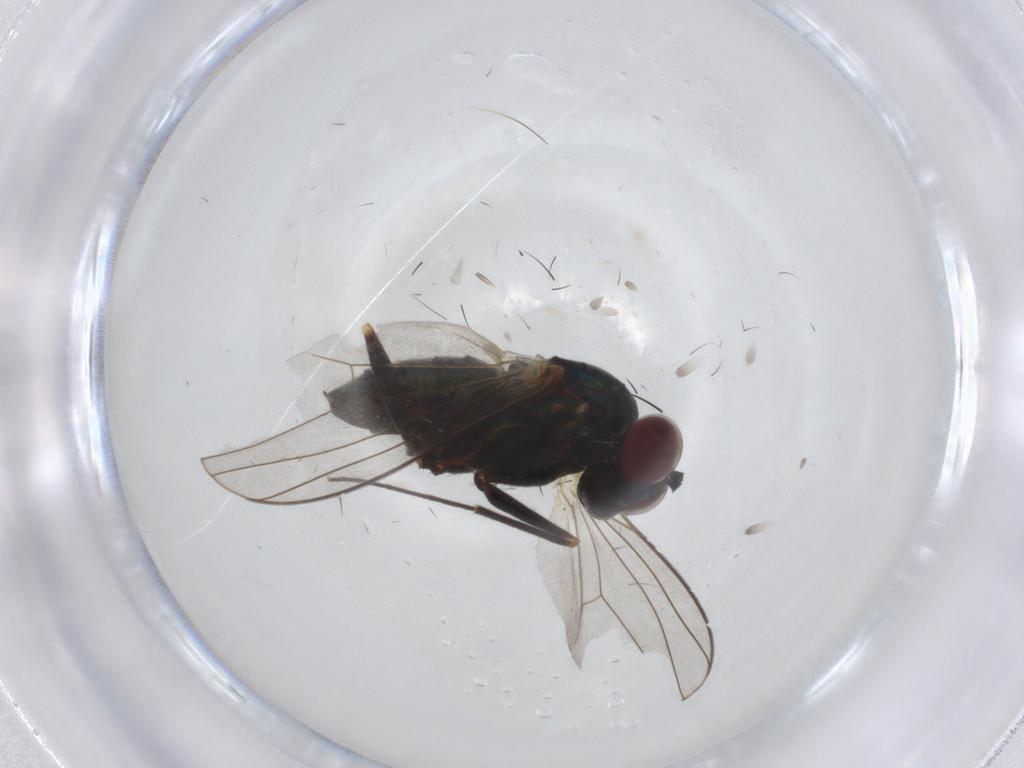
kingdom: Animalia
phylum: Arthropoda
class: Insecta
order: Diptera
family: Dolichopodidae
